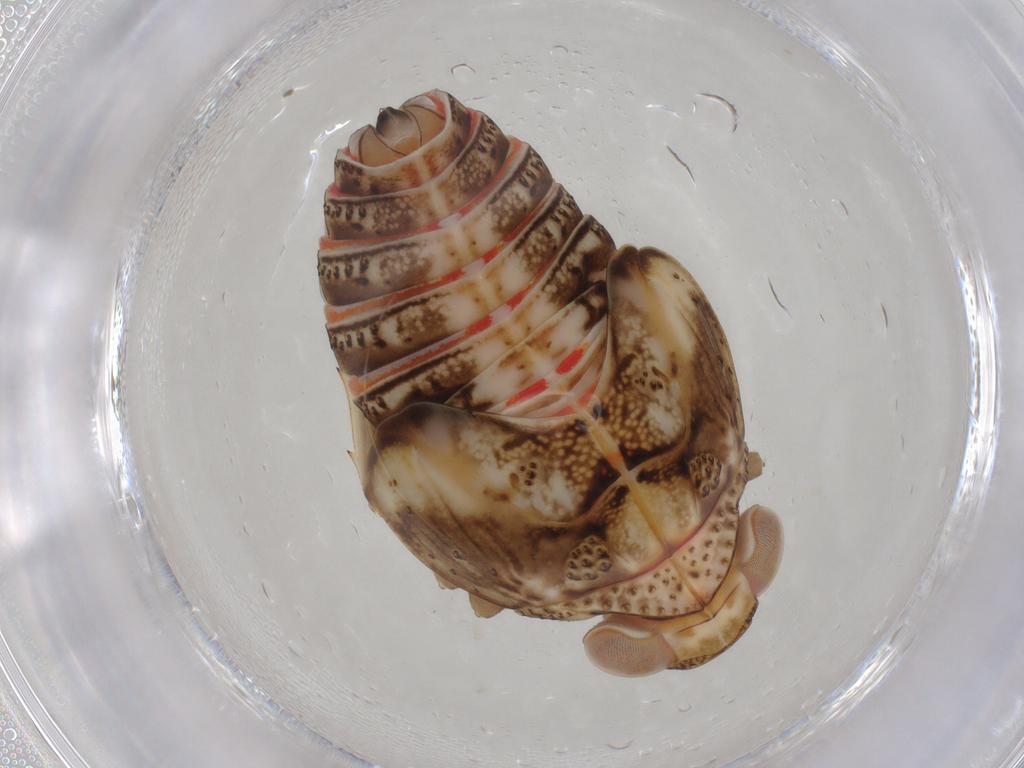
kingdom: Animalia
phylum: Arthropoda
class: Insecta
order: Hemiptera
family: Issidae
